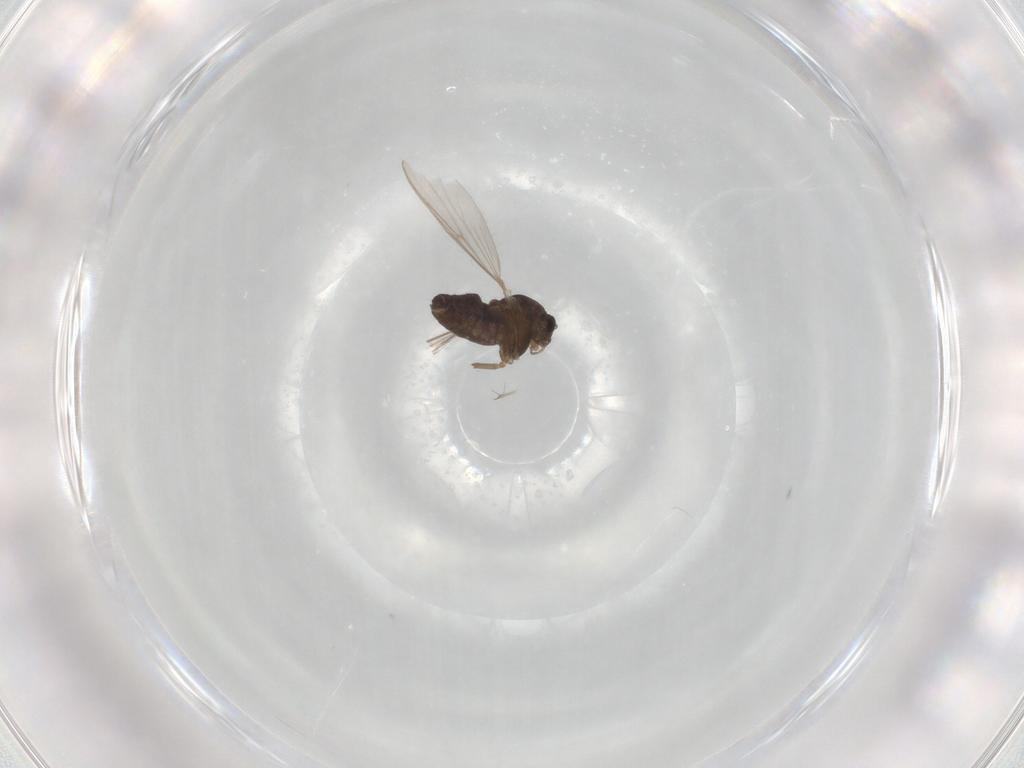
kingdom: Animalia
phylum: Arthropoda
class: Insecta
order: Diptera
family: Chironomidae
